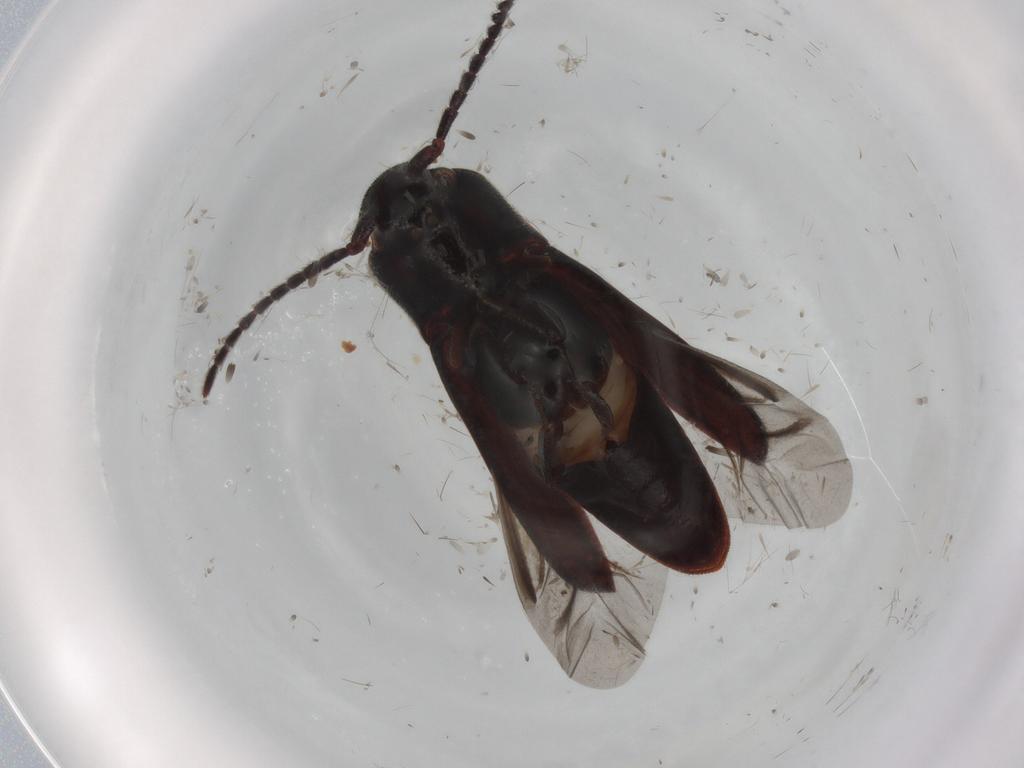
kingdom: Animalia
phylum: Arthropoda
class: Insecta
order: Coleoptera
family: Eucnemidae
